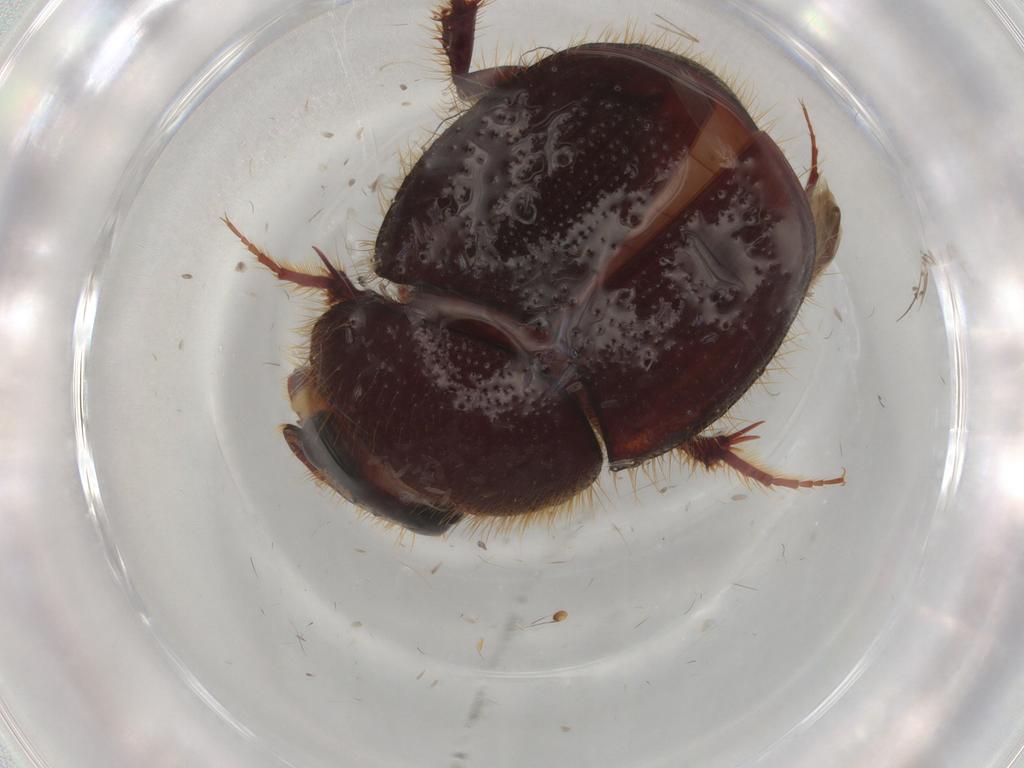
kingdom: Animalia
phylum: Arthropoda
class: Insecta
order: Coleoptera
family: Scarabaeidae
